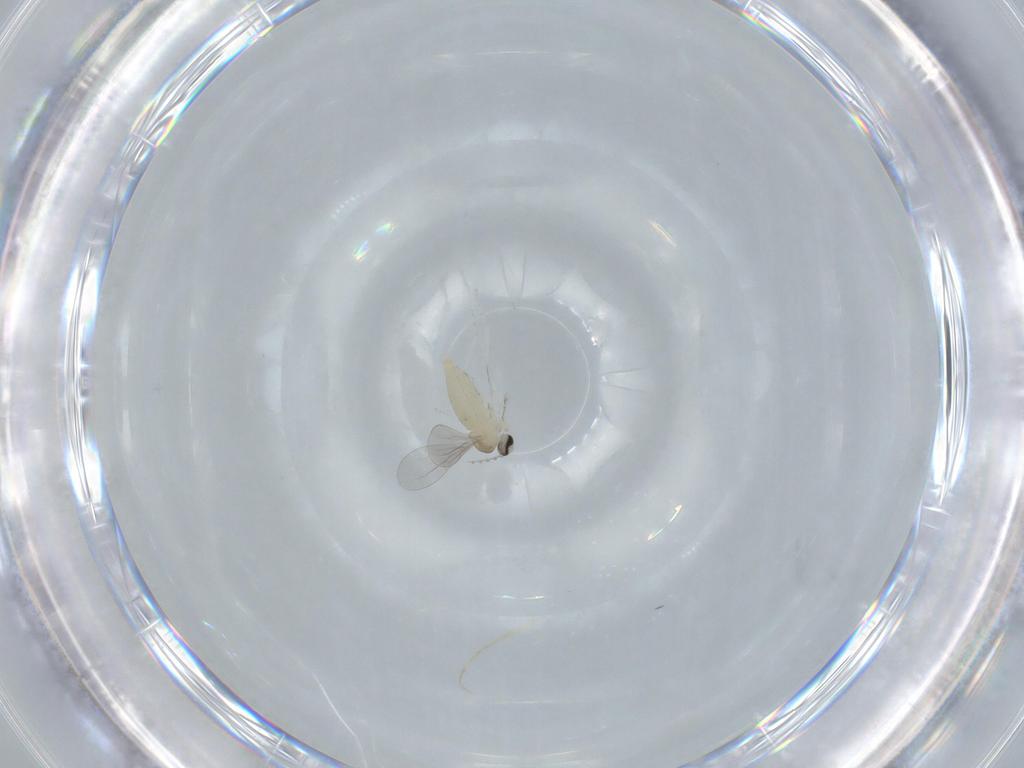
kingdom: Animalia
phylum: Arthropoda
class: Insecta
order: Diptera
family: Cecidomyiidae
